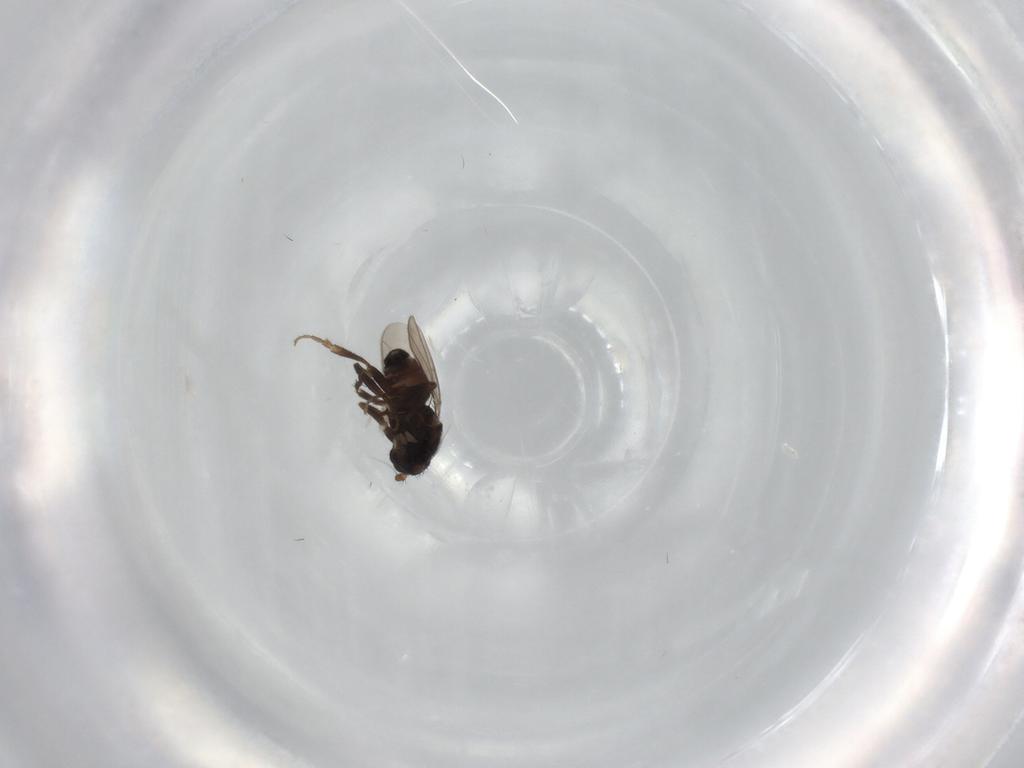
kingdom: Animalia
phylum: Arthropoda
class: Insecta
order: Diptera
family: Sphaeroceridae
